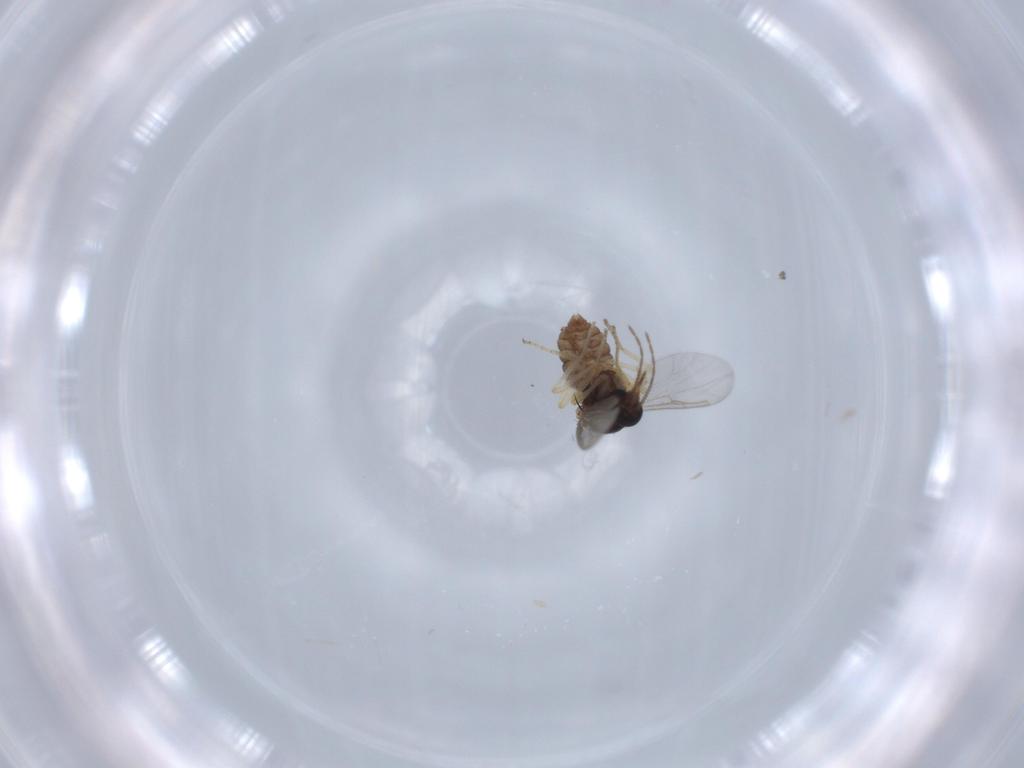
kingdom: Animalia
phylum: Arthropoda
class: Insecta
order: Diptera
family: Ceratopogonidae
